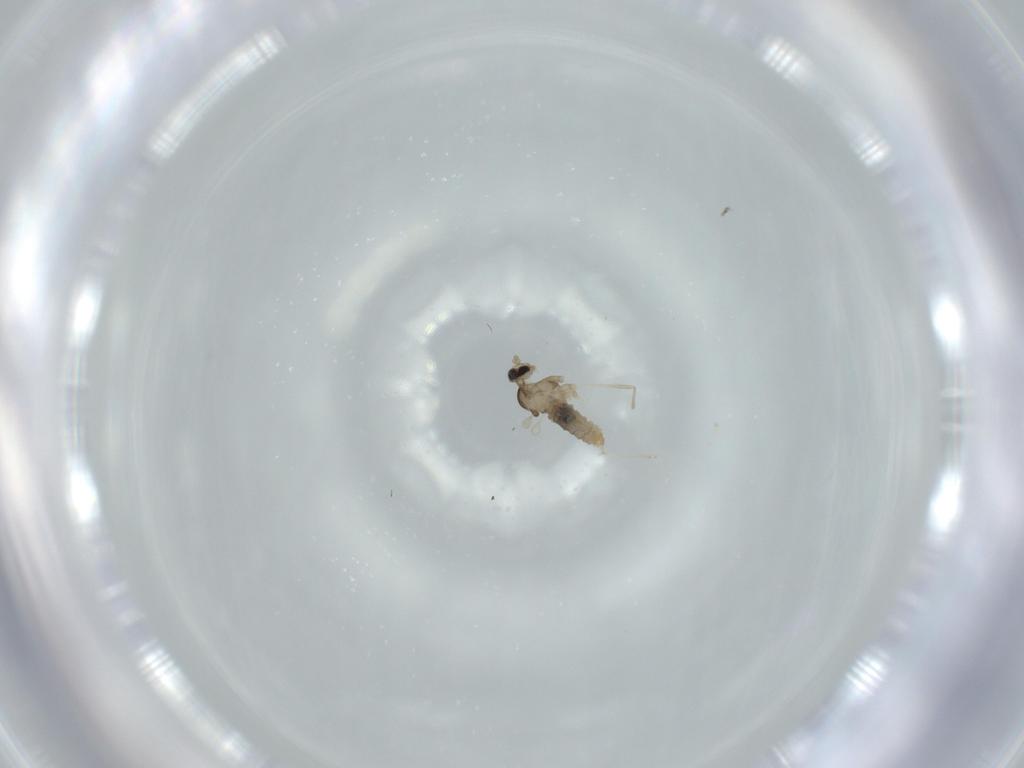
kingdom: Animalia
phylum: Arthropoda
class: Insecta
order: Diptera
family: Cecidomyiidae
